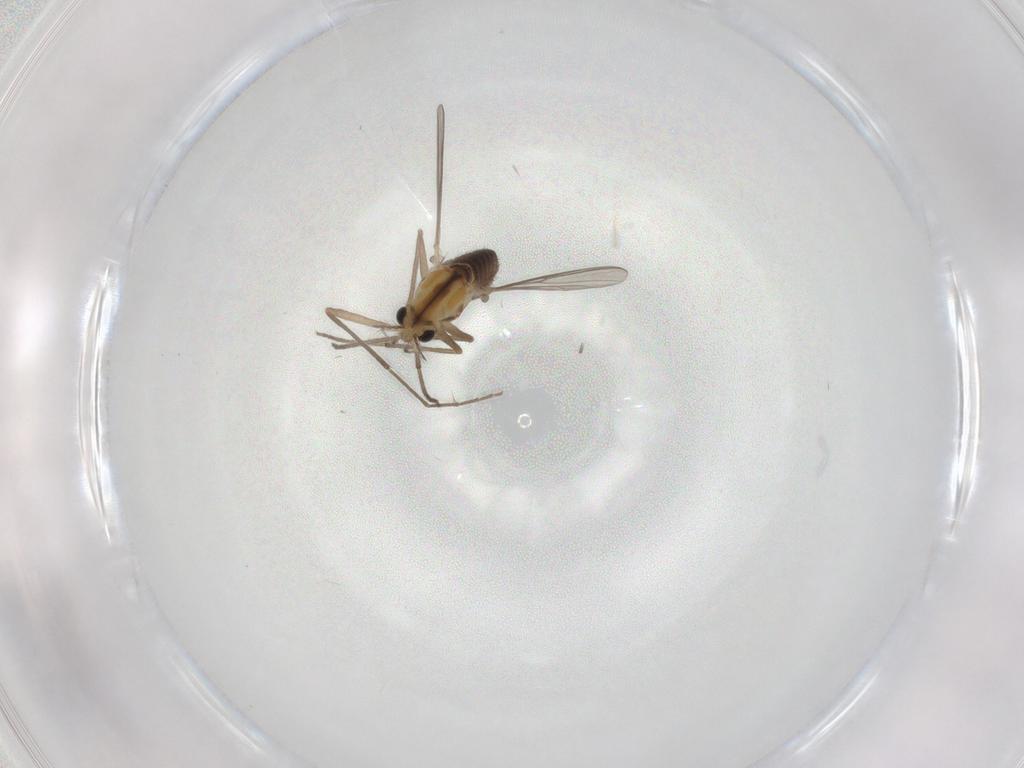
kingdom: Animalia
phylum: Arthropoda
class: Insecta
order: Diptera
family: Chironomidae
